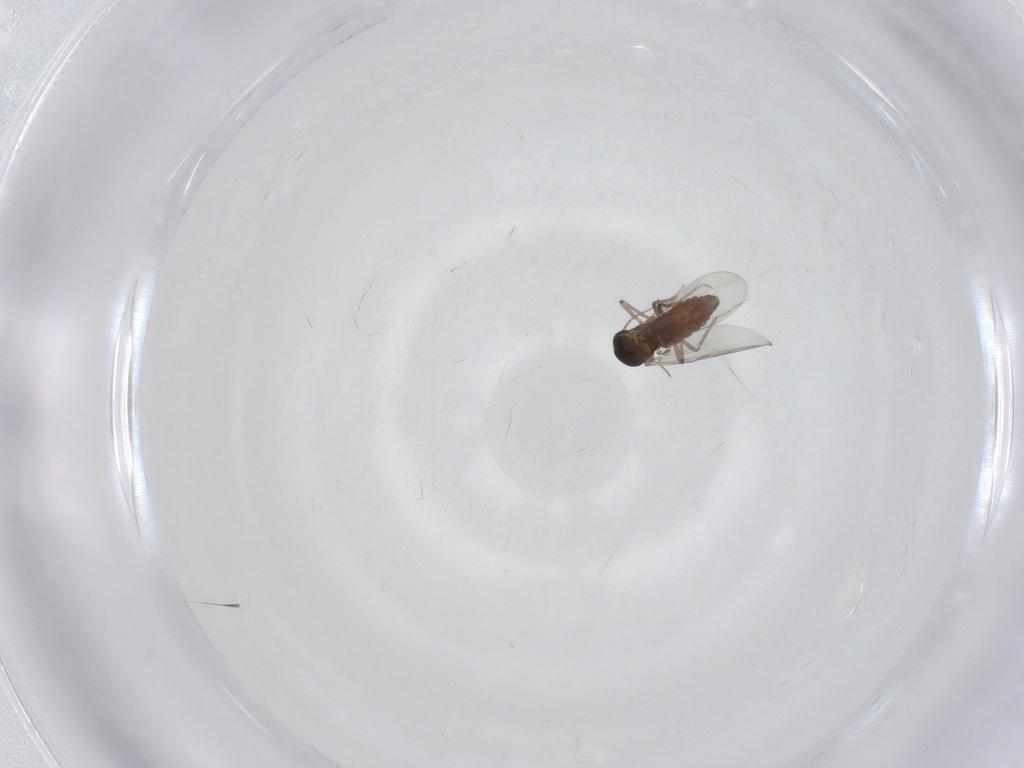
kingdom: Animalia
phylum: Arthropoda
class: Insecta
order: Diptera
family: Ceratopogonidae
